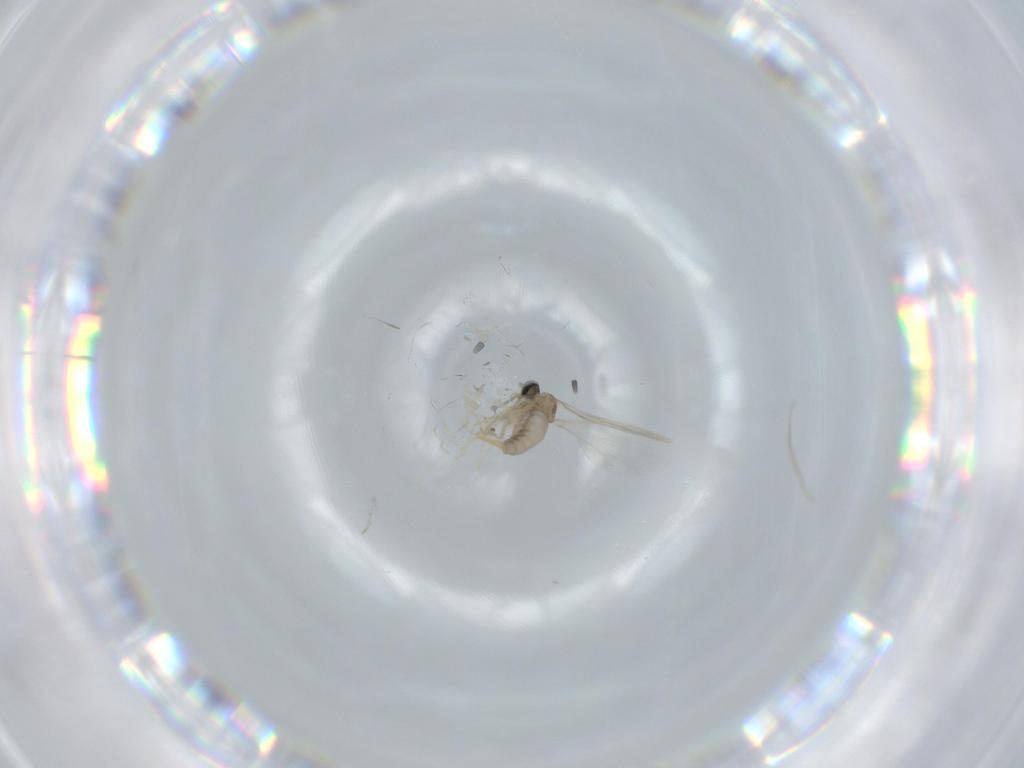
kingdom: Animalia
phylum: Arthropoda
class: Insecta
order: Diptera
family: Cecidomyiidae
